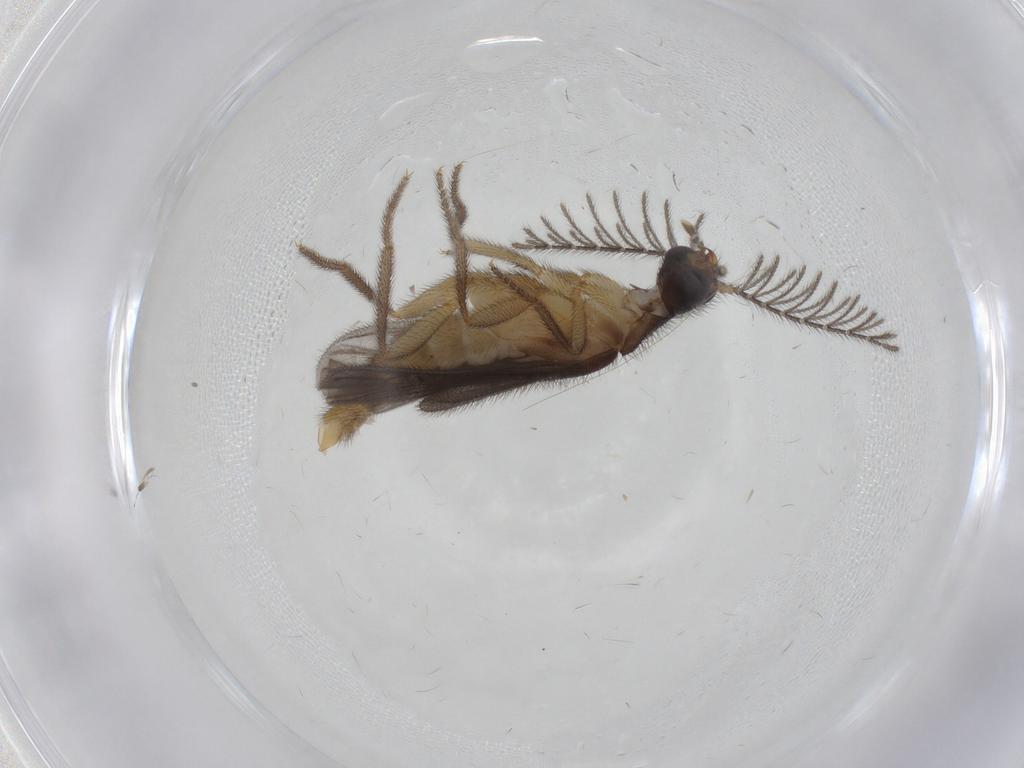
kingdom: Animalia
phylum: Arthropoda
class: Insecta
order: Coleoptera
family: Phengodidae
